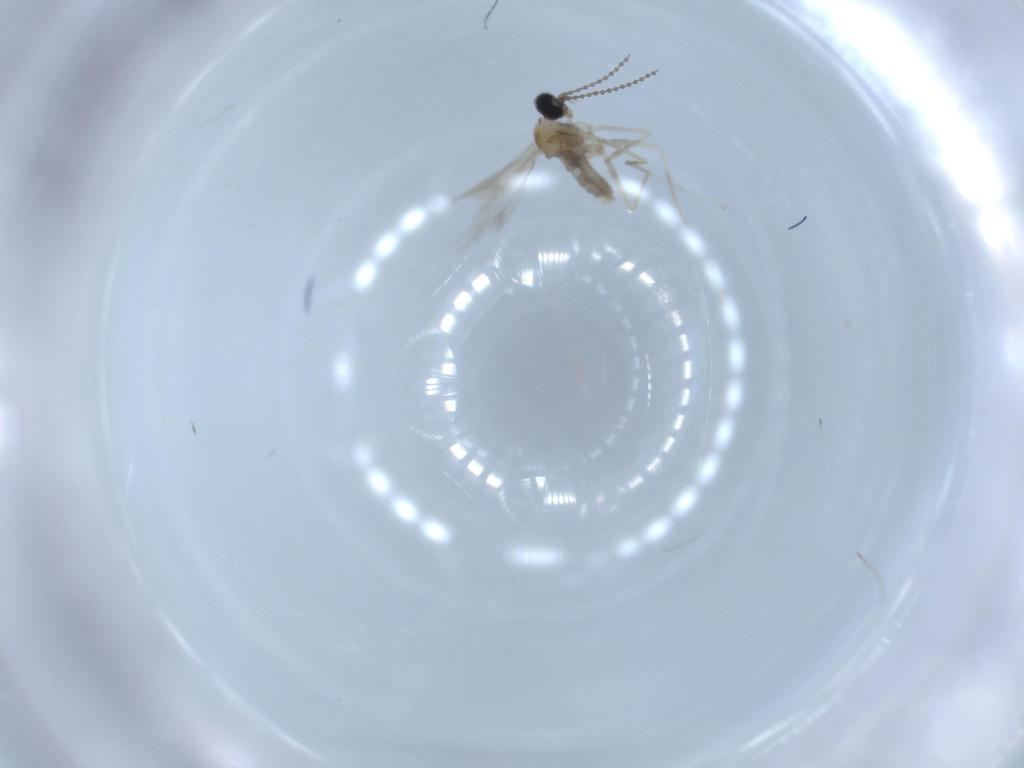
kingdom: Animalia
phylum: Arthropoda
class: Insecta
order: Diptera
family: Cecidomyiidae
